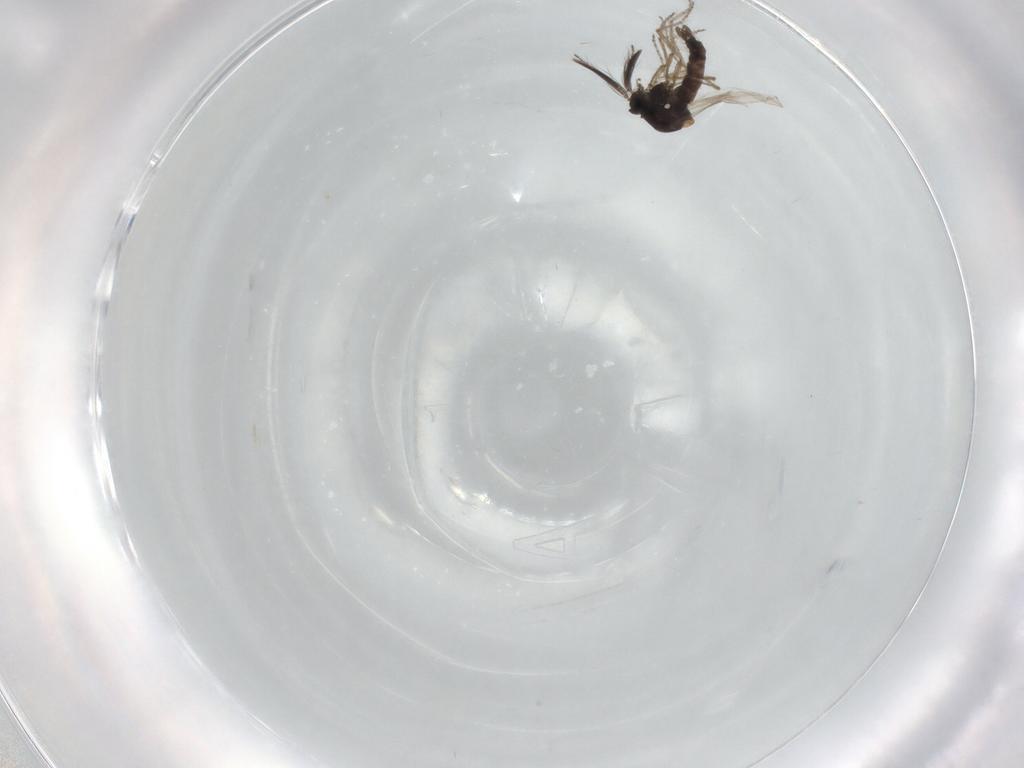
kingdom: Animalia
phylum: Arthropoda
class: Insecta
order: Diptera
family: Ceratopogonidae
